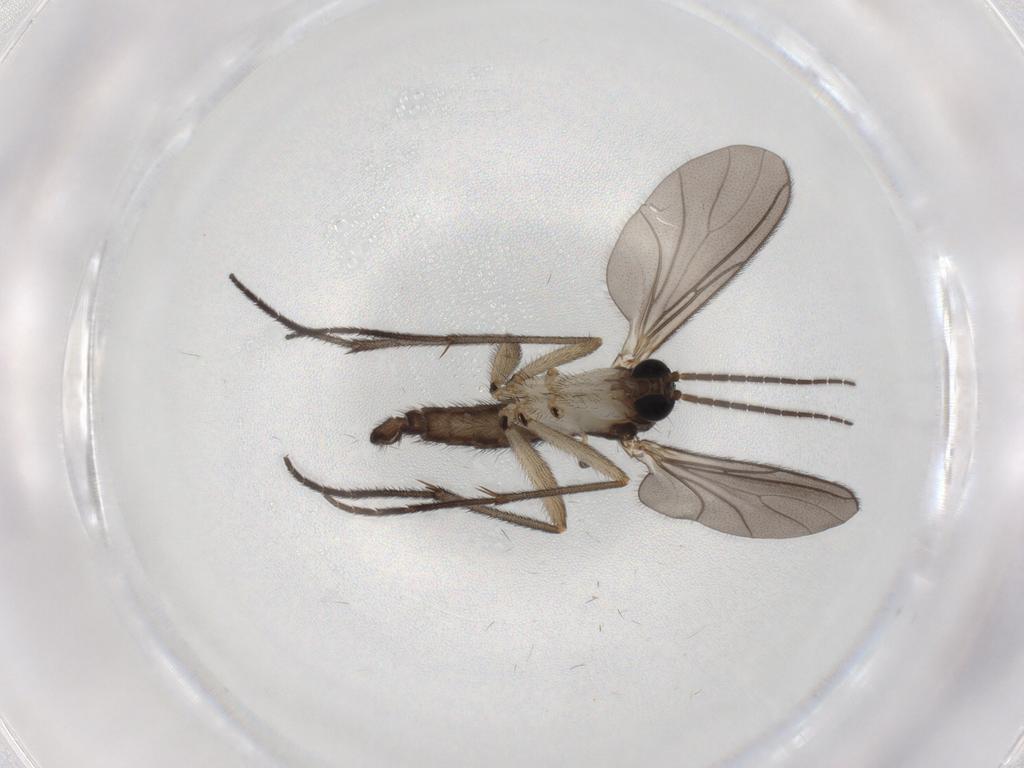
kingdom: Animalia
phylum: Arthropoda
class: Insecta
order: Diptera
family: Sciaridae
